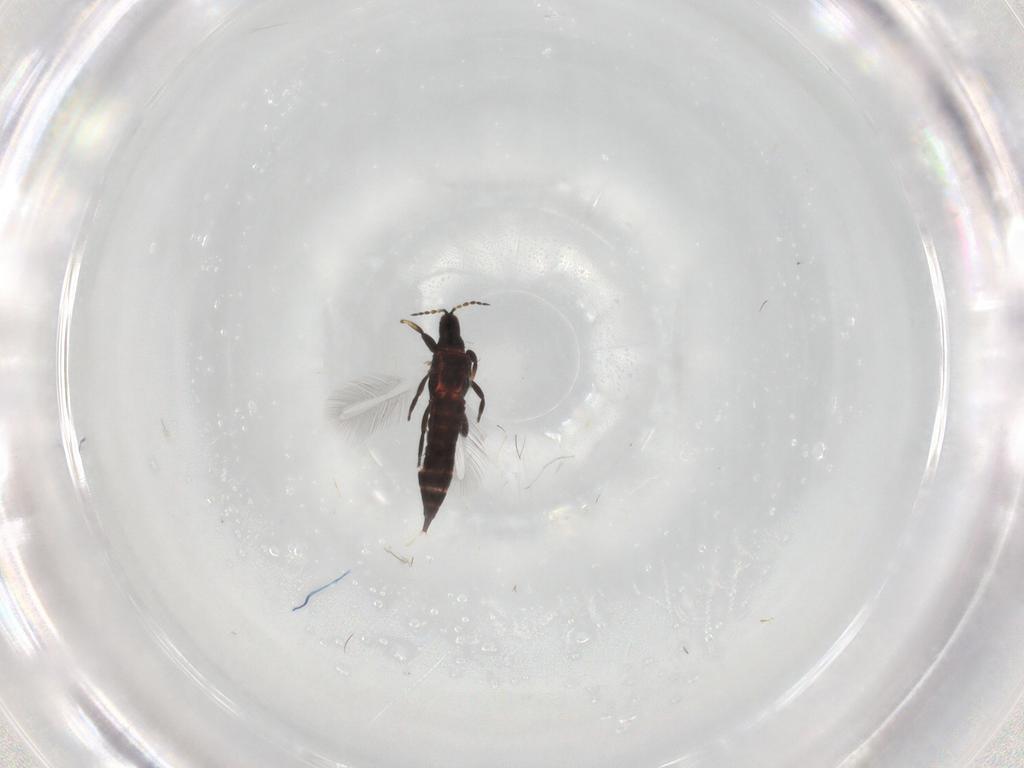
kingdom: Animalia
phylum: Arthropoda
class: Insecta
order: Thysanoptera
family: Phlaeothripidae
